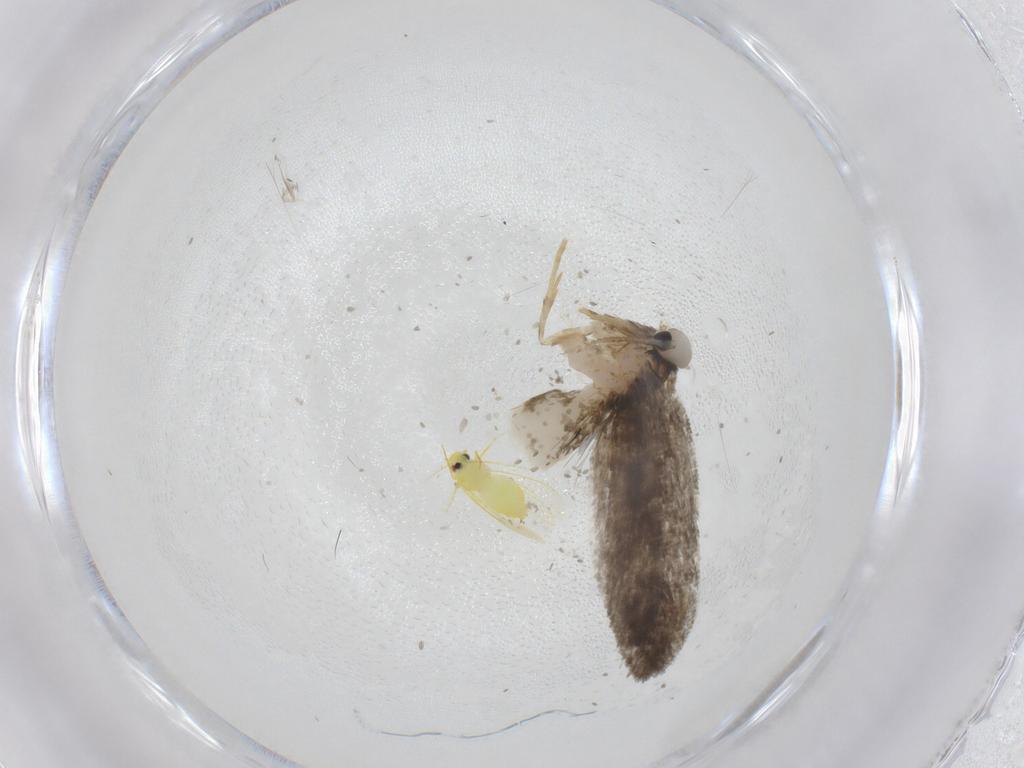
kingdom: Animalia
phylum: Arthropoda
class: Insecta
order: Lepidoptera
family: Psychidae
